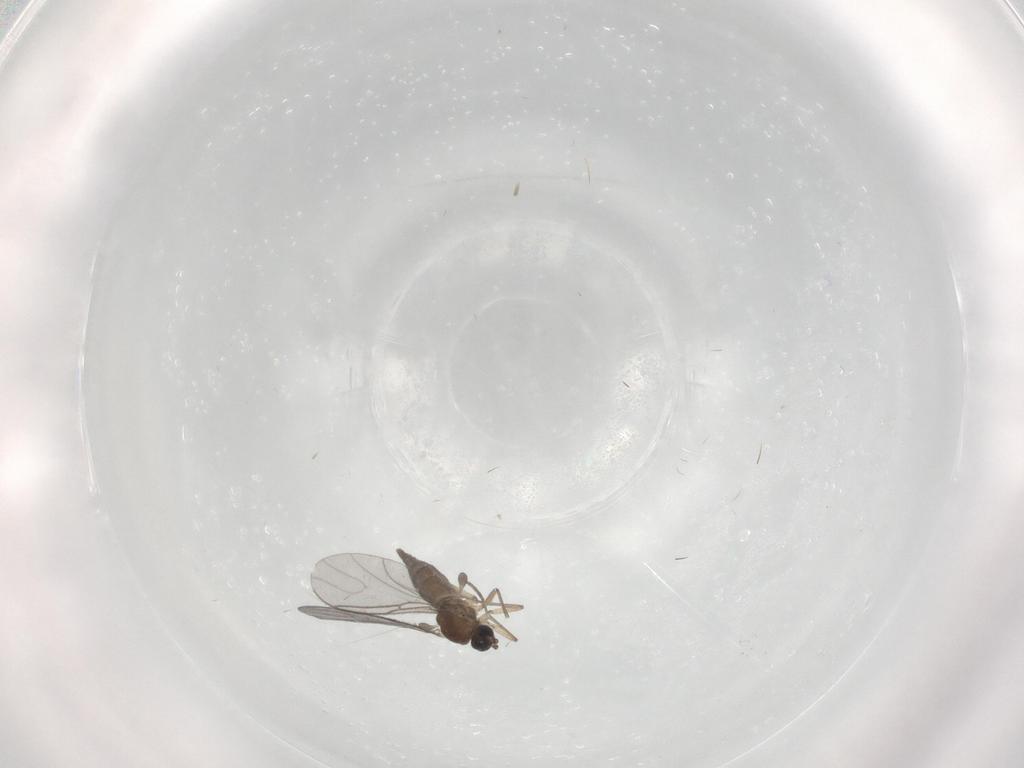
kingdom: Animalia
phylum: Arthropoda
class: Insecta
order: Diptera
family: Sciaridae
